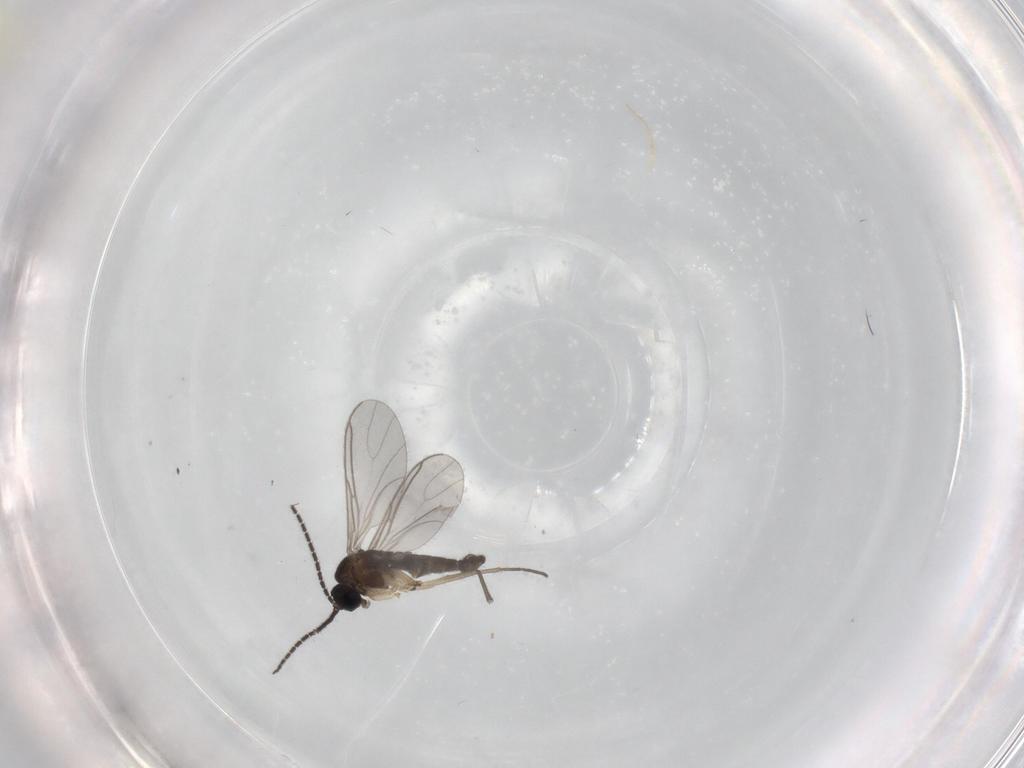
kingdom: Animalia
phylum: Arthropoda
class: Insecta
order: Diptera
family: Sciaridae
